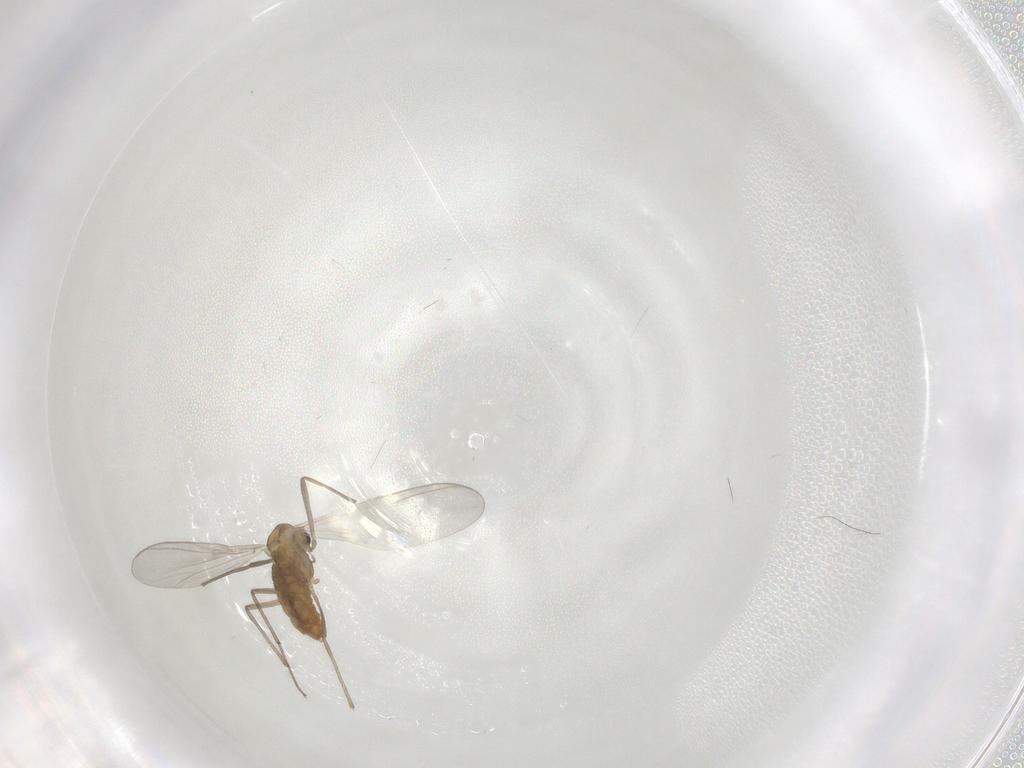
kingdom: Animalia
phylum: Arthropoda
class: Insecta
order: Diptera
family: Chironomidae
